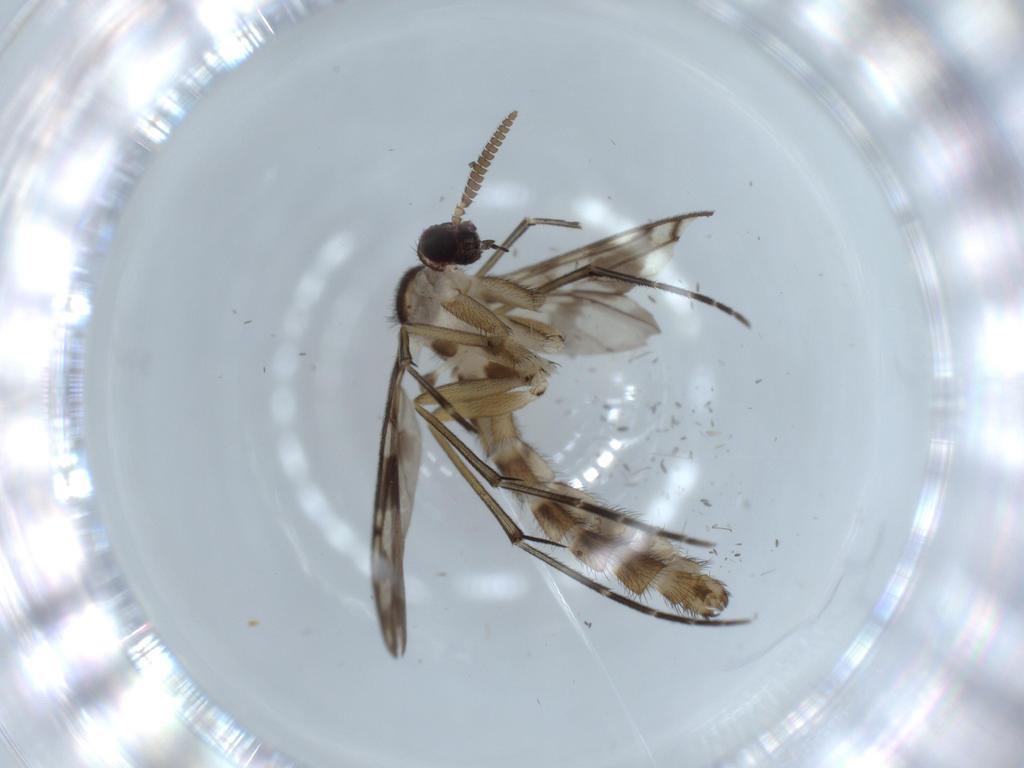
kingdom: Animalia
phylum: Arthropoda
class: Insecta
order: Diptera
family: Keroplatidae
